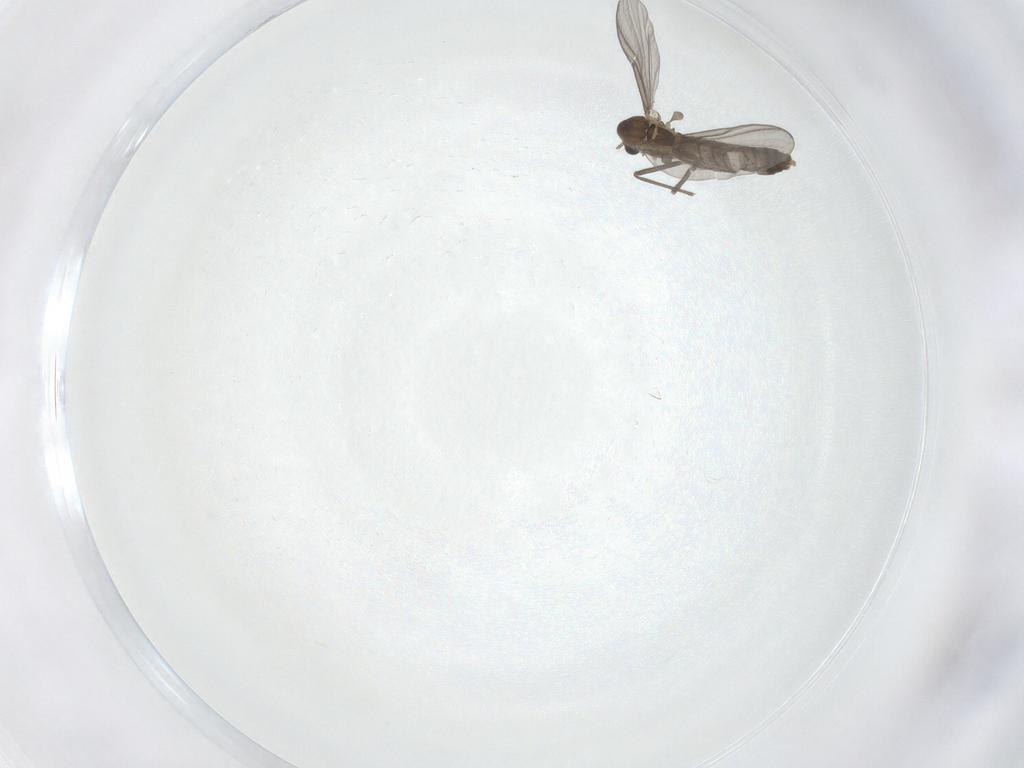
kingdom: Animalia
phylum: Arthropoda
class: Insecta
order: Diptera
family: Chironomidae
